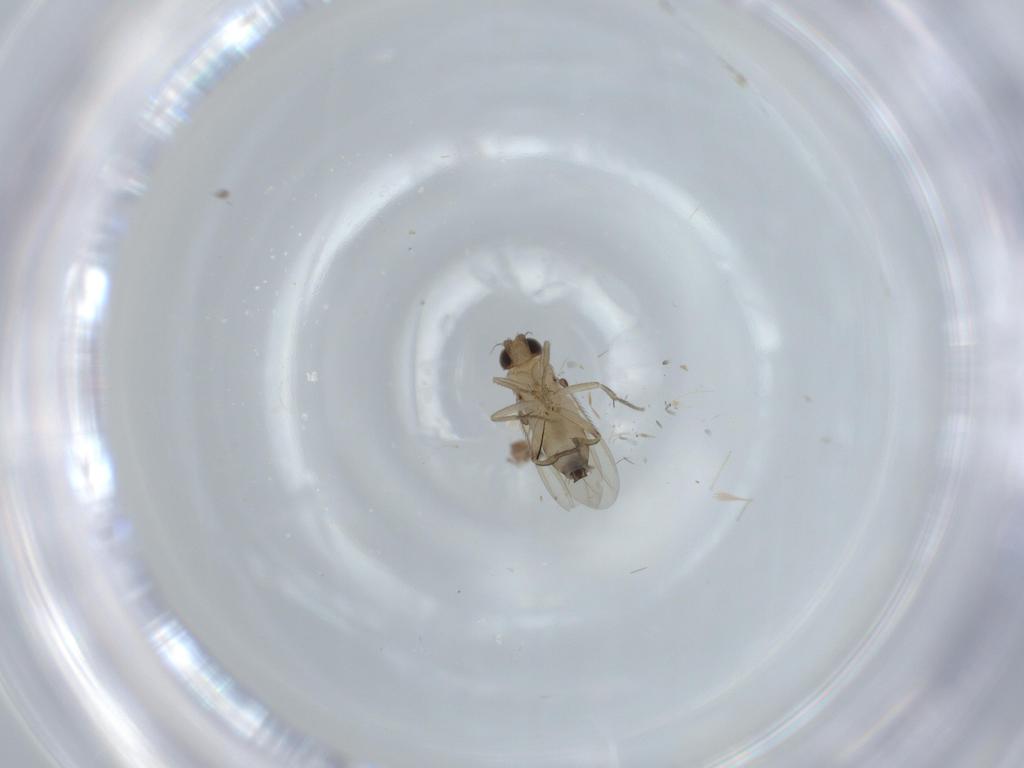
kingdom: Animalia
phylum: Arthropoda
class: Insecta
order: Diptera
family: Phoridae
